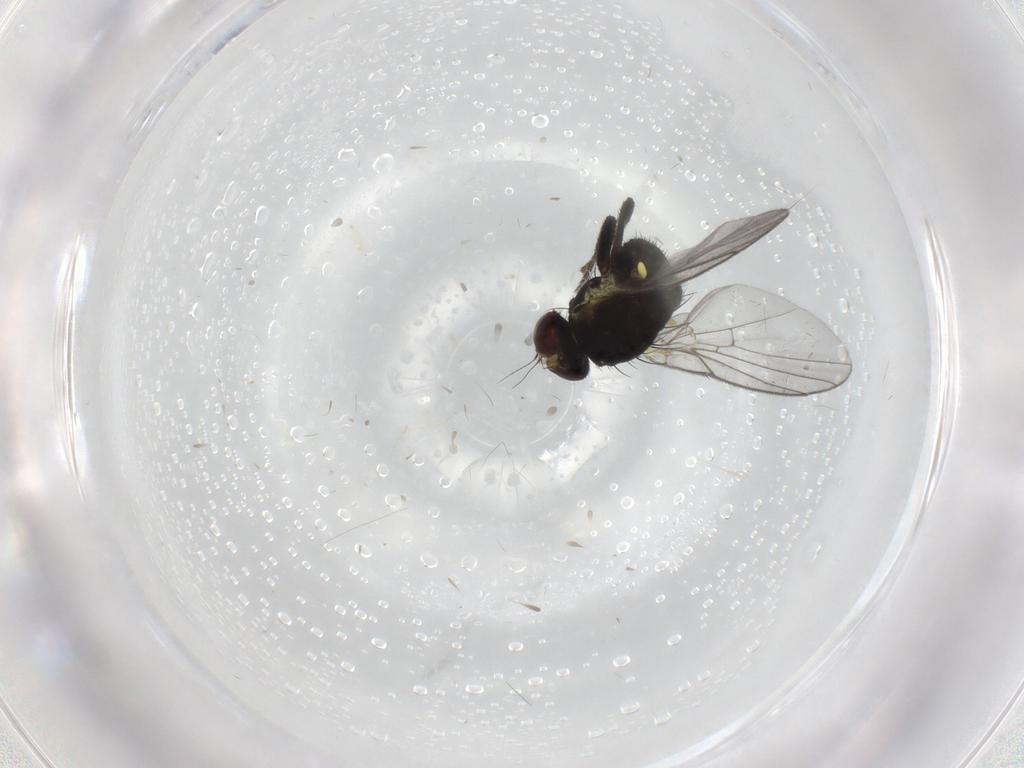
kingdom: Animalia
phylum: Arthropoda
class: Insecta
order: Diptera
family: Agromyzidae
